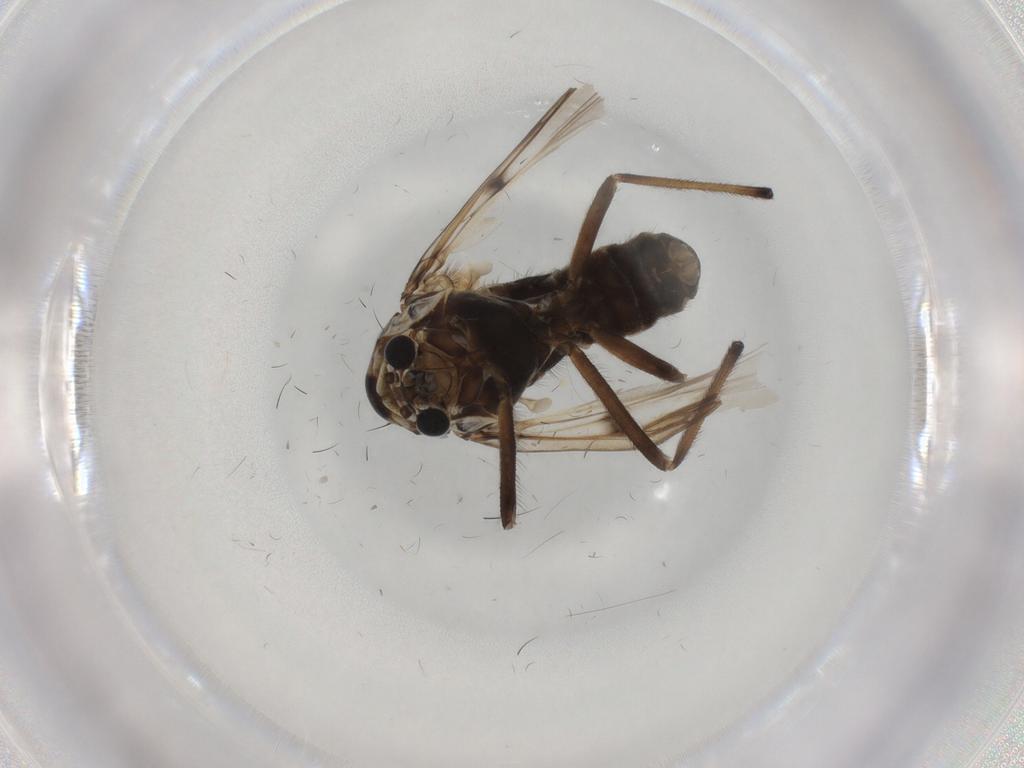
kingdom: Animalia
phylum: Arthropoda
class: Insecta
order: Diptera
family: Chironomidae
